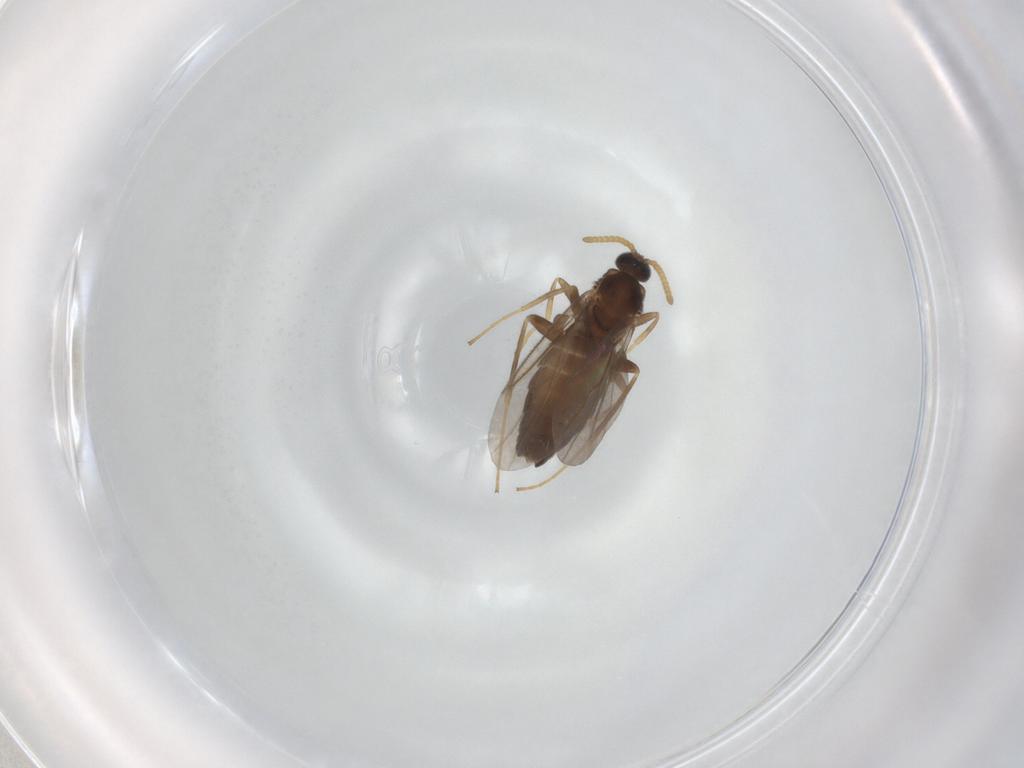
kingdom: Animalia
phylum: Arthropoda
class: Insecta
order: Diptera
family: Scatopsidae
